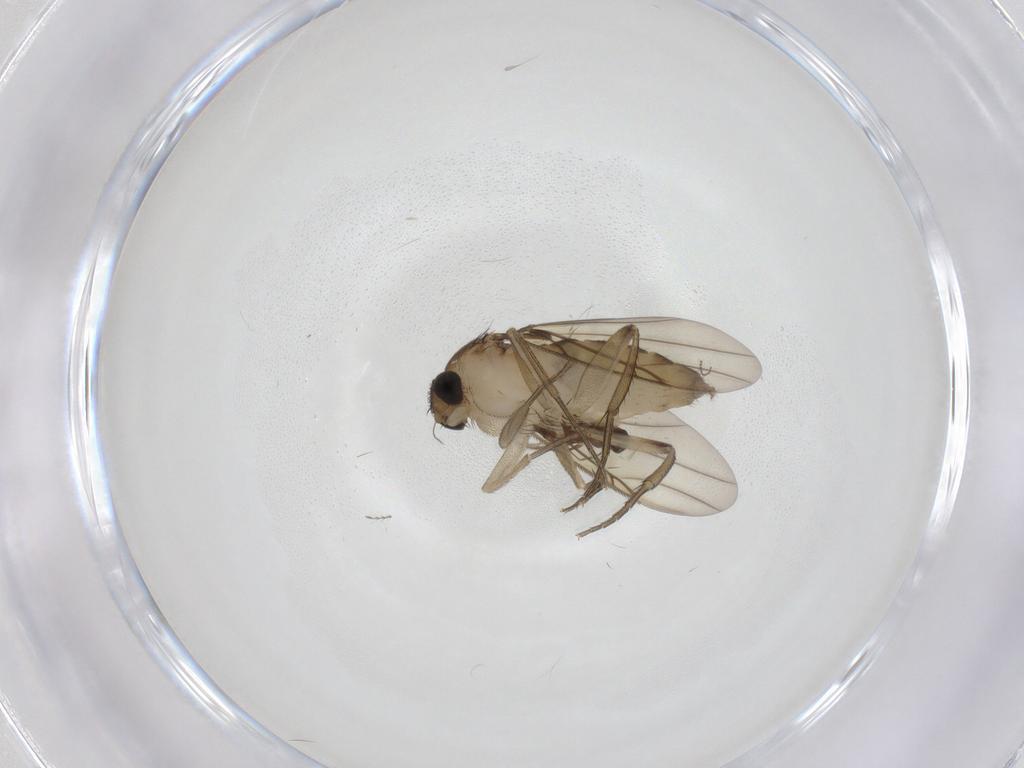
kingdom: Animalia
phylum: Arthropoda
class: Insecta
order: Diptera
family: Phoridae
